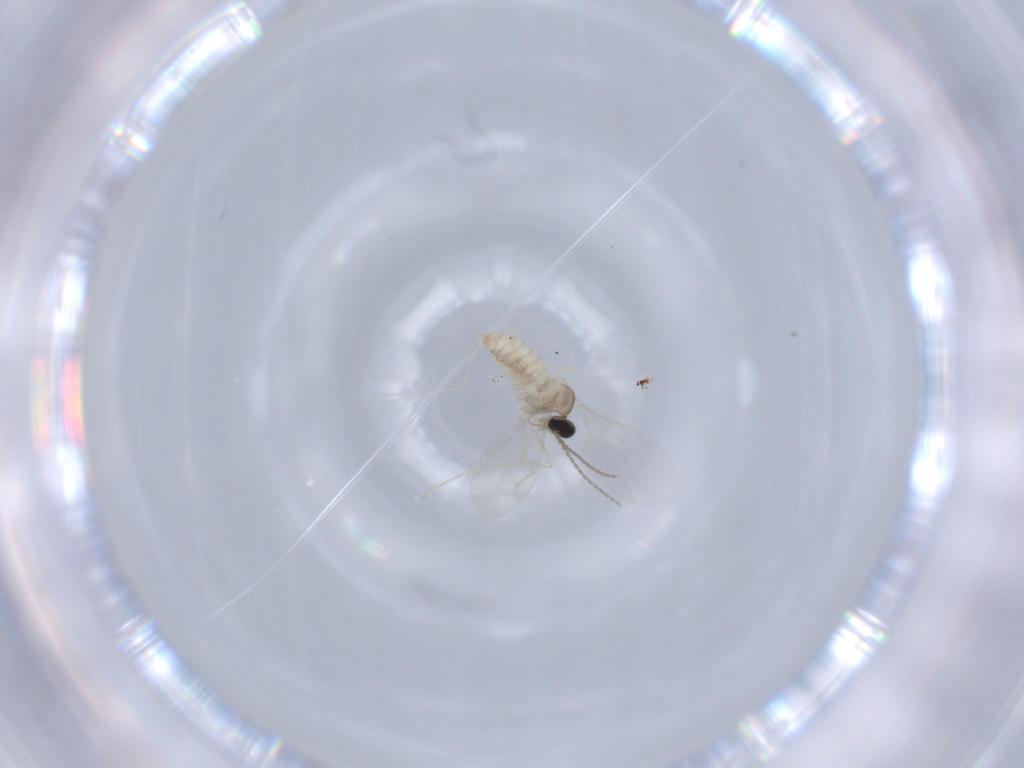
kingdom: Animalia
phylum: Arthropoda
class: Insecta
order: Diptera
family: Cecidomyiidae
